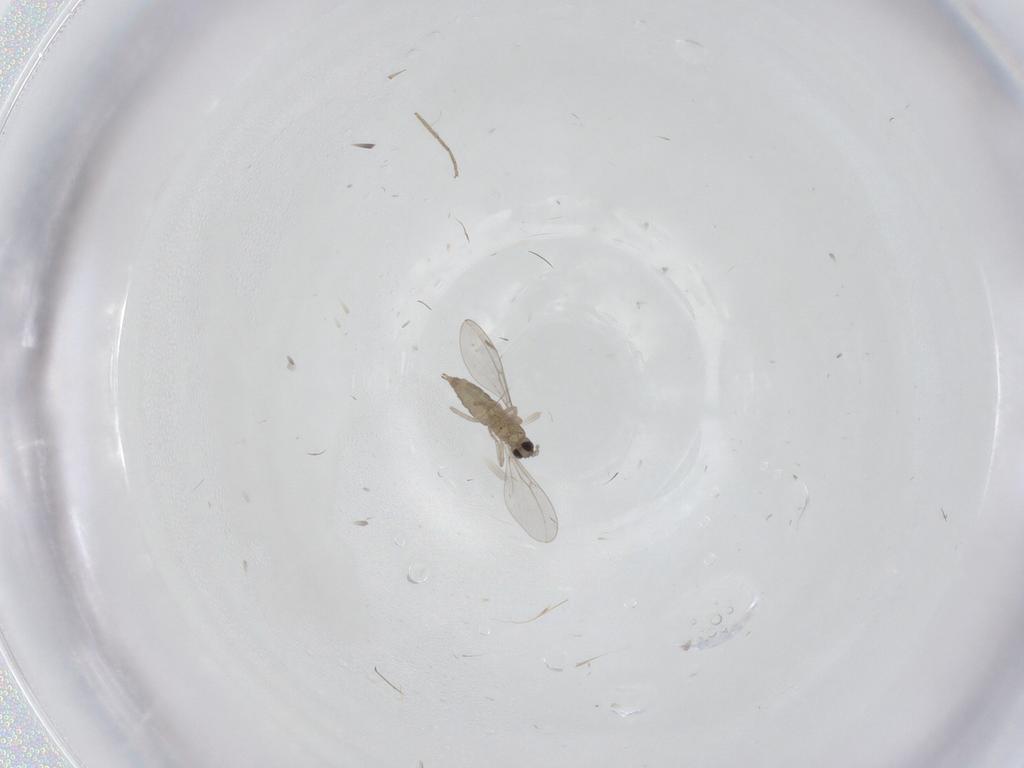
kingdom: Animalia
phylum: Arthropoda
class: Insecta
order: Diptera
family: Cecidomyiidae
